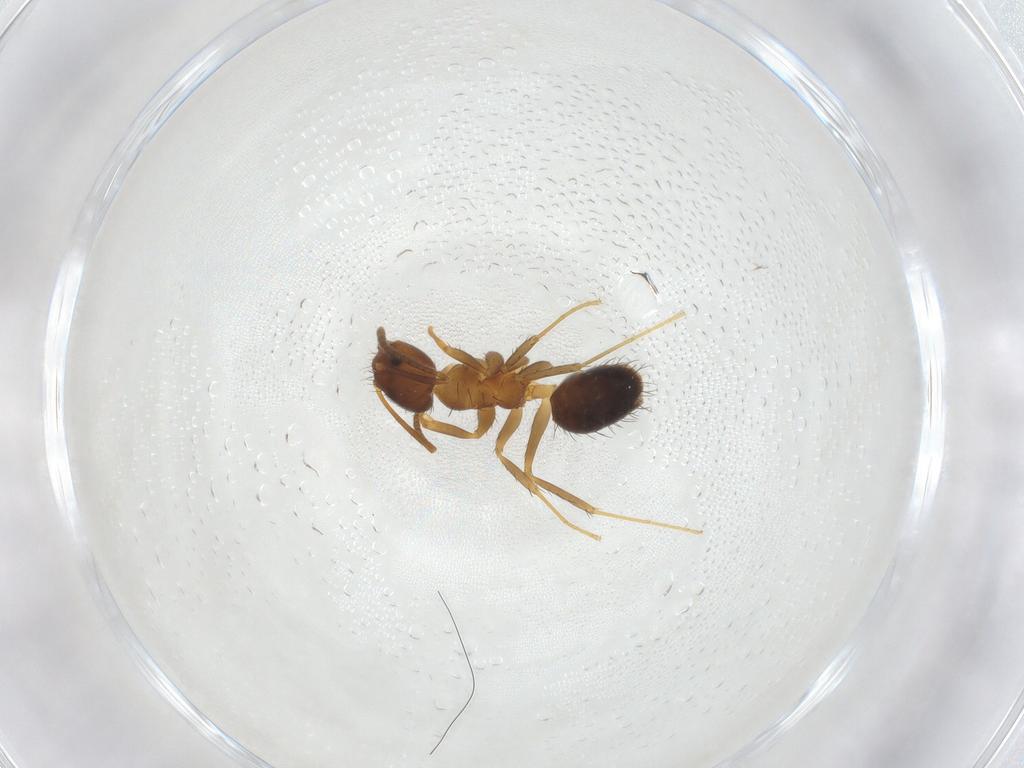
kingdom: Animalia
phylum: Arthropoda
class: Insecta
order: Hymenoptera
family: Formicidae
